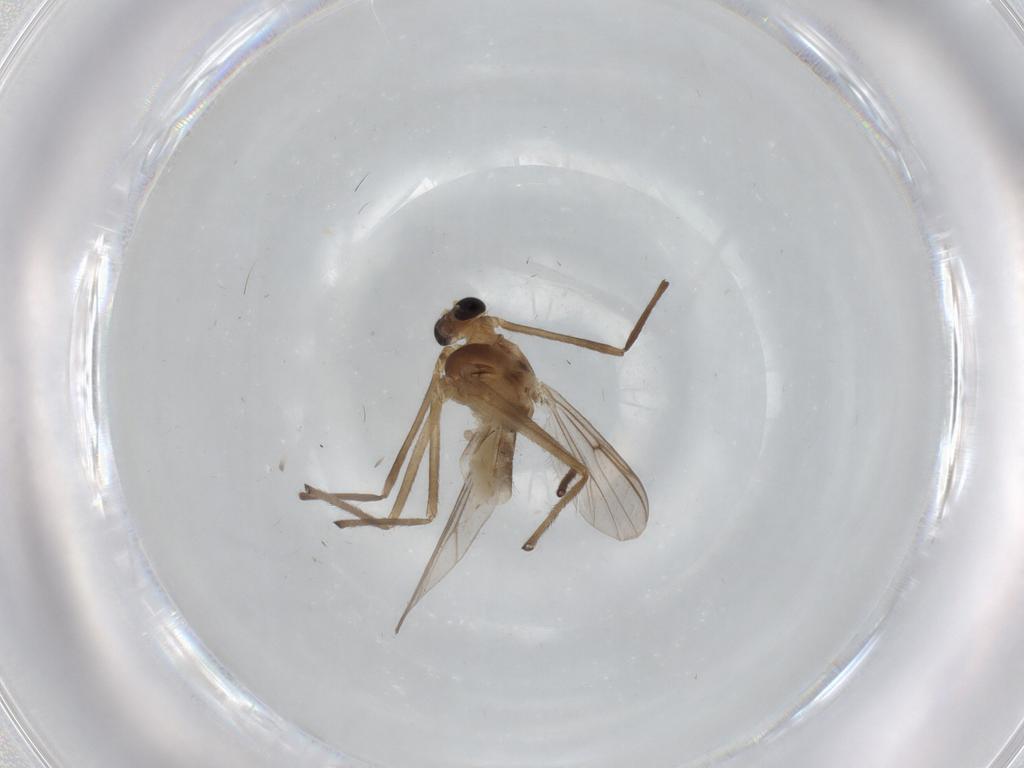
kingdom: Animalia
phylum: Arthropoda
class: Insecta
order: Diptera
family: Chironomidae
